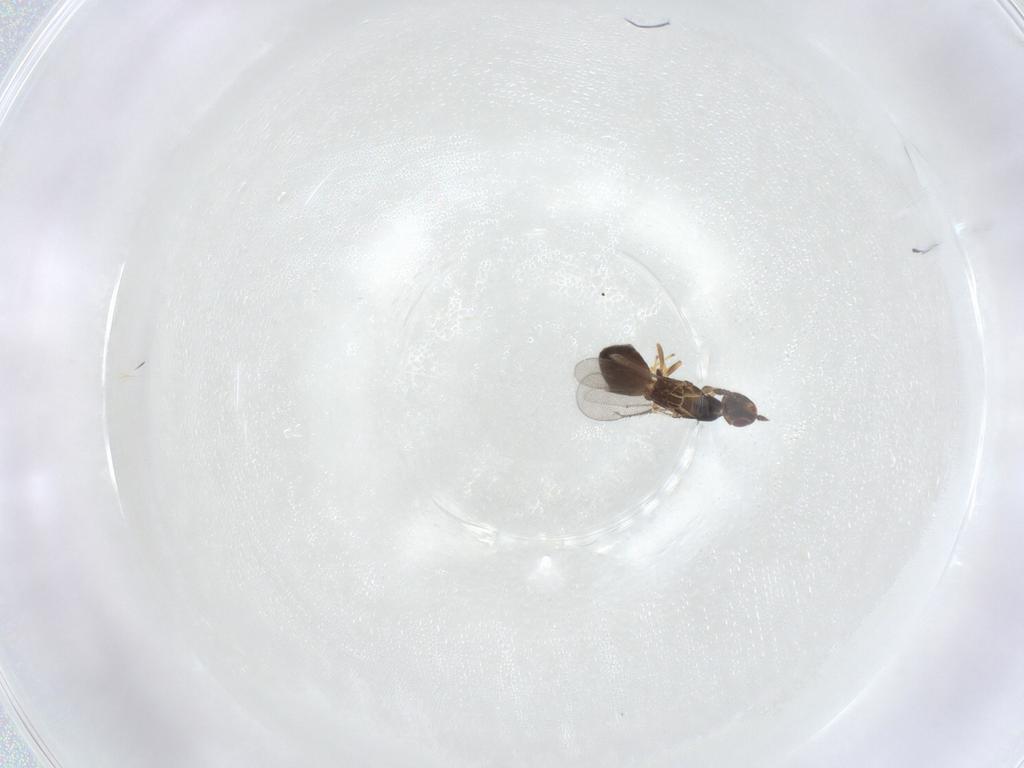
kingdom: Animalia
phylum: Arthropoda
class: Insecta
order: Hymenoptera
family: Eulophidae
